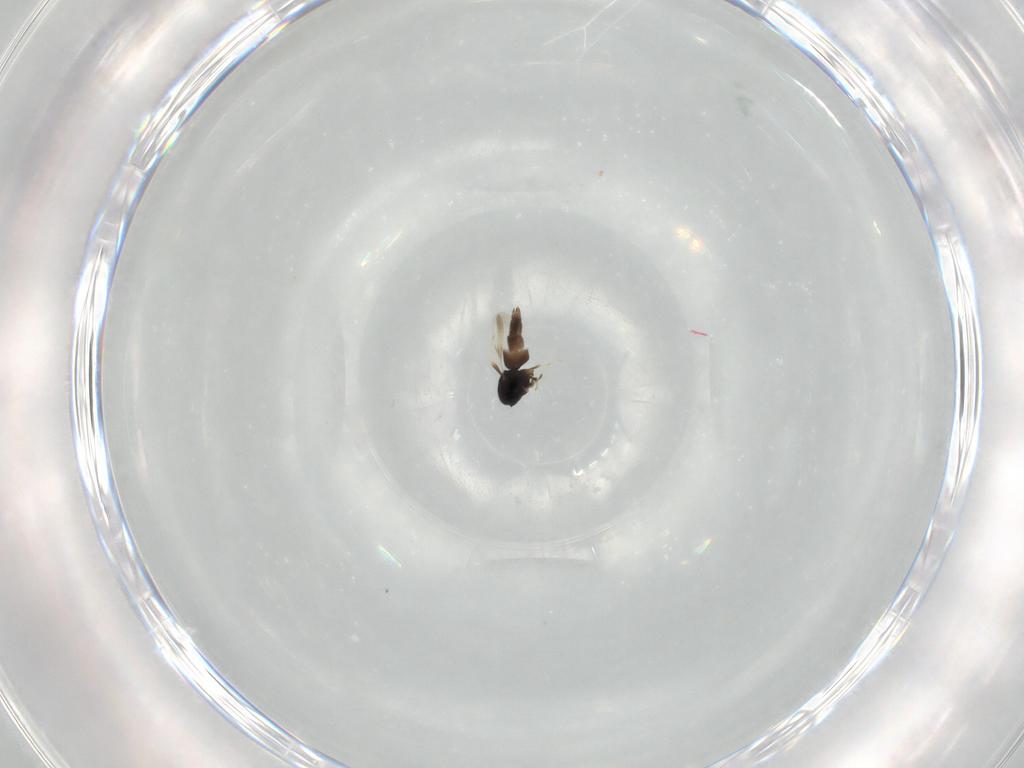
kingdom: Animalia
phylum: Arthropoda
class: Insecta
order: Hymenoptera
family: Ceraphronidae
